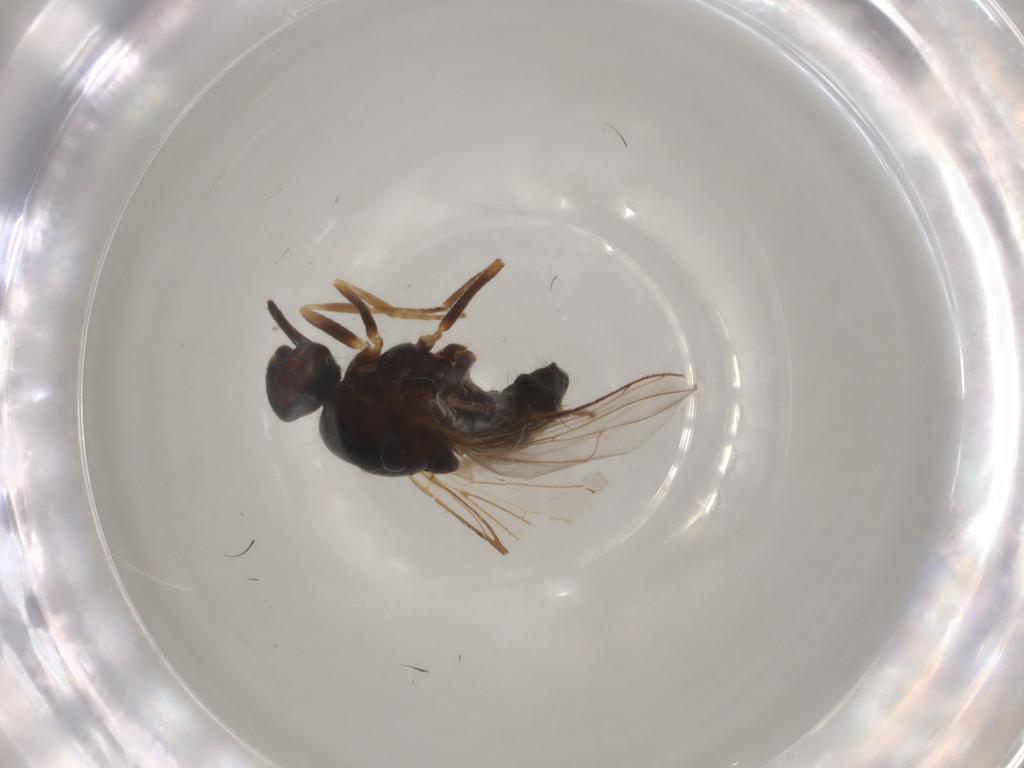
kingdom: Animalia
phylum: Arthropoda
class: Insecta
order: Diptera
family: Muscidae
